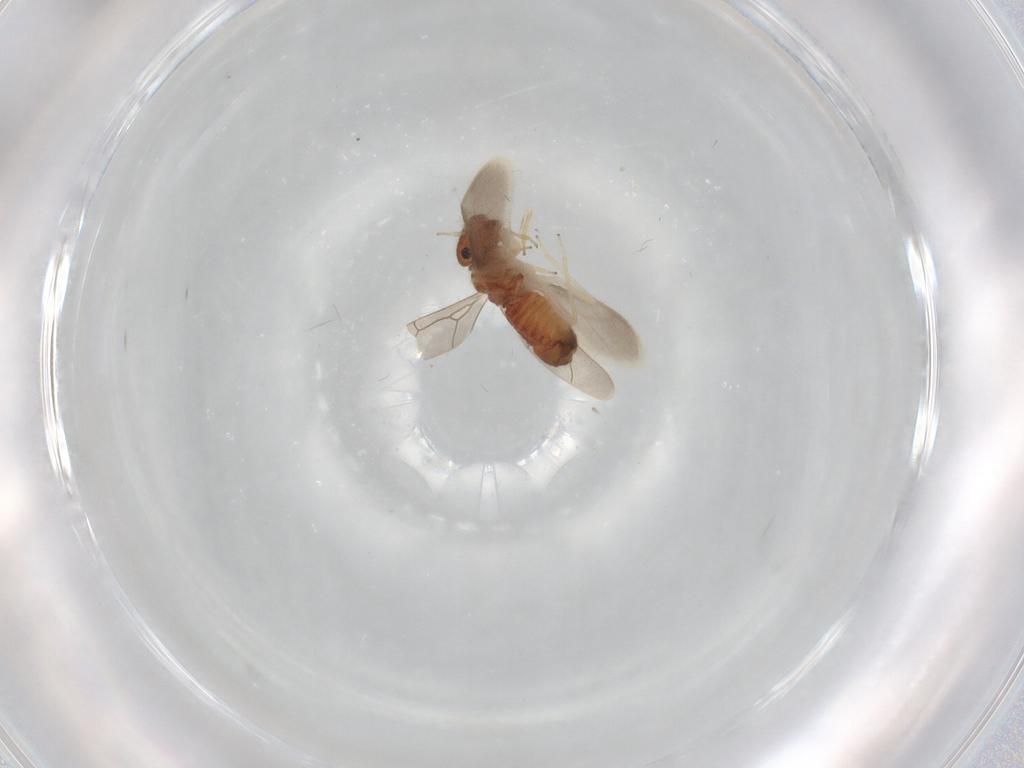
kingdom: Animalia
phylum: Arthropoda
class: Insecta
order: Psocodea
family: Archipsocidae
